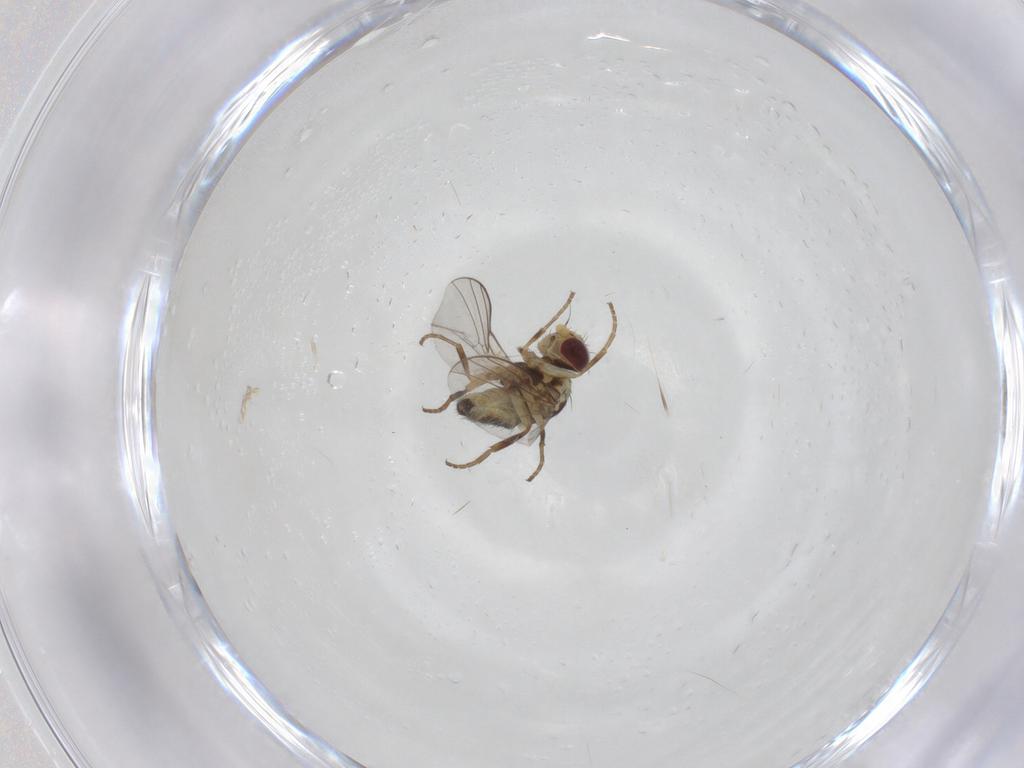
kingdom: Animalia
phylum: Arthropoda
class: Insecta
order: Diptera
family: Agromyzidae
